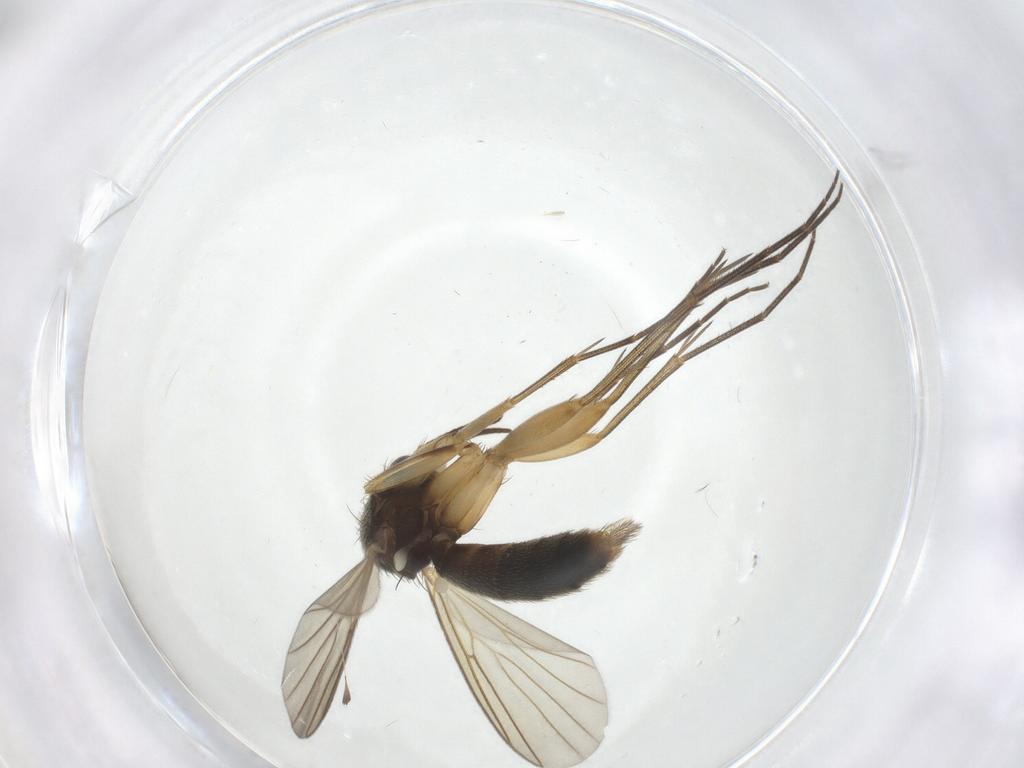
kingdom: Animalia
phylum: Arthropoda
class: Insecta
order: Diptera
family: Mycetophilidae
